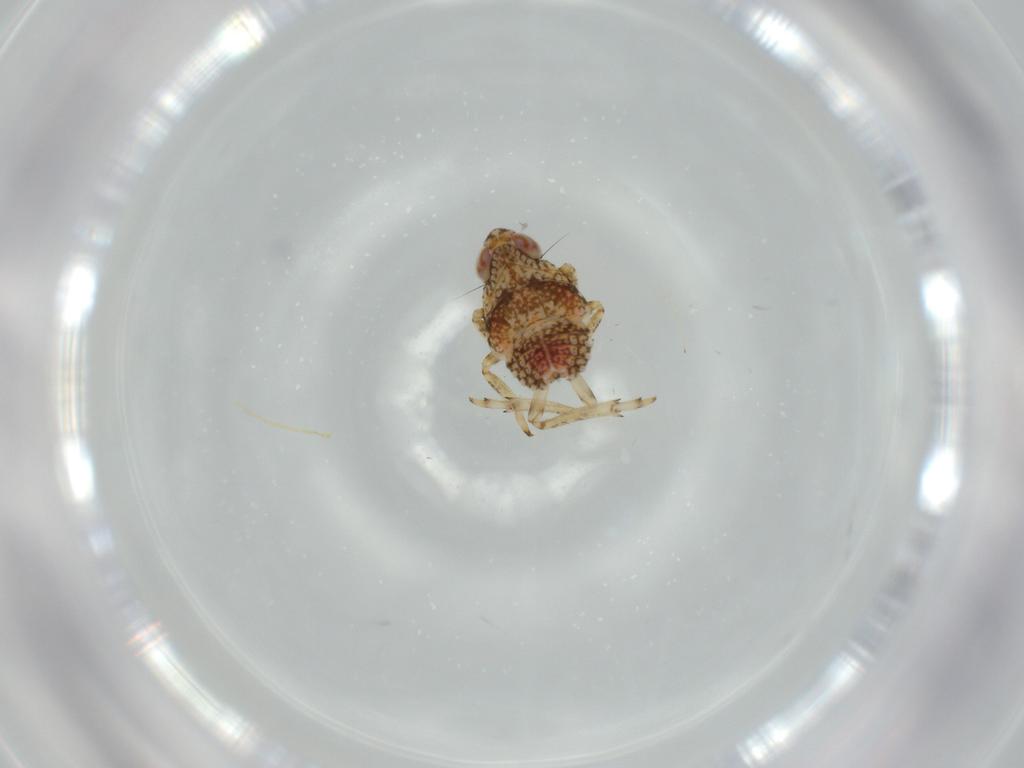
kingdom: Animalia
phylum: Arthropoda
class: Insecta
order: Hemiptera
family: Issidae
